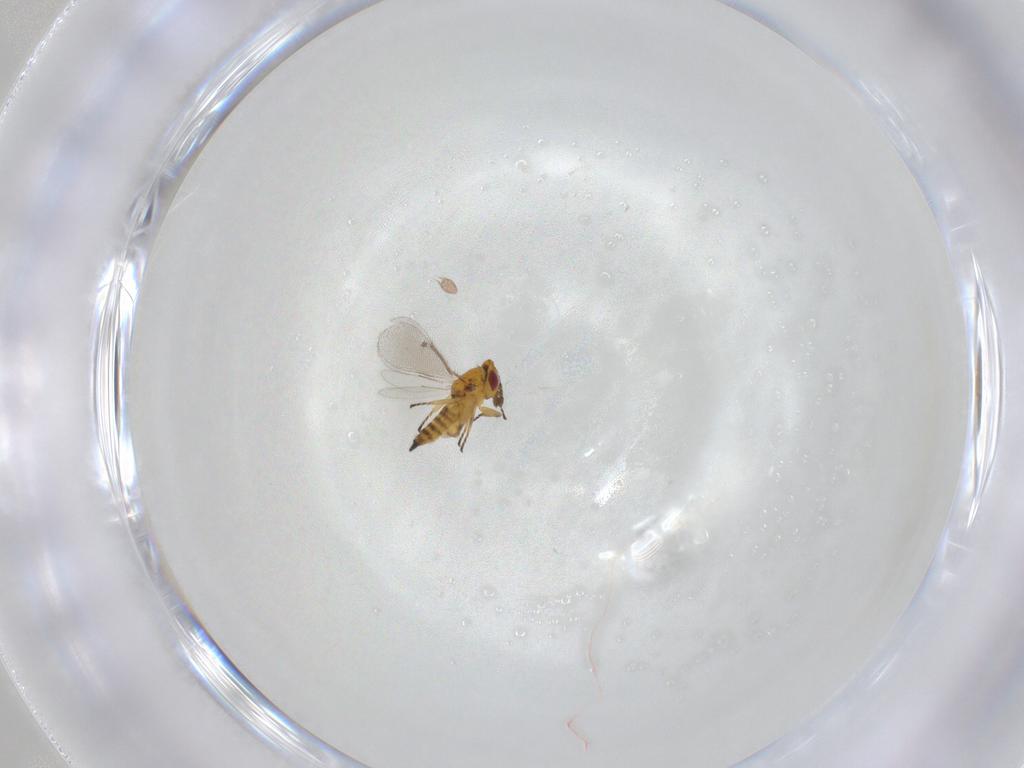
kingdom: Animalia
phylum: Arthropoda
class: Insecta
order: Hymenoptera
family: Eulophidae
